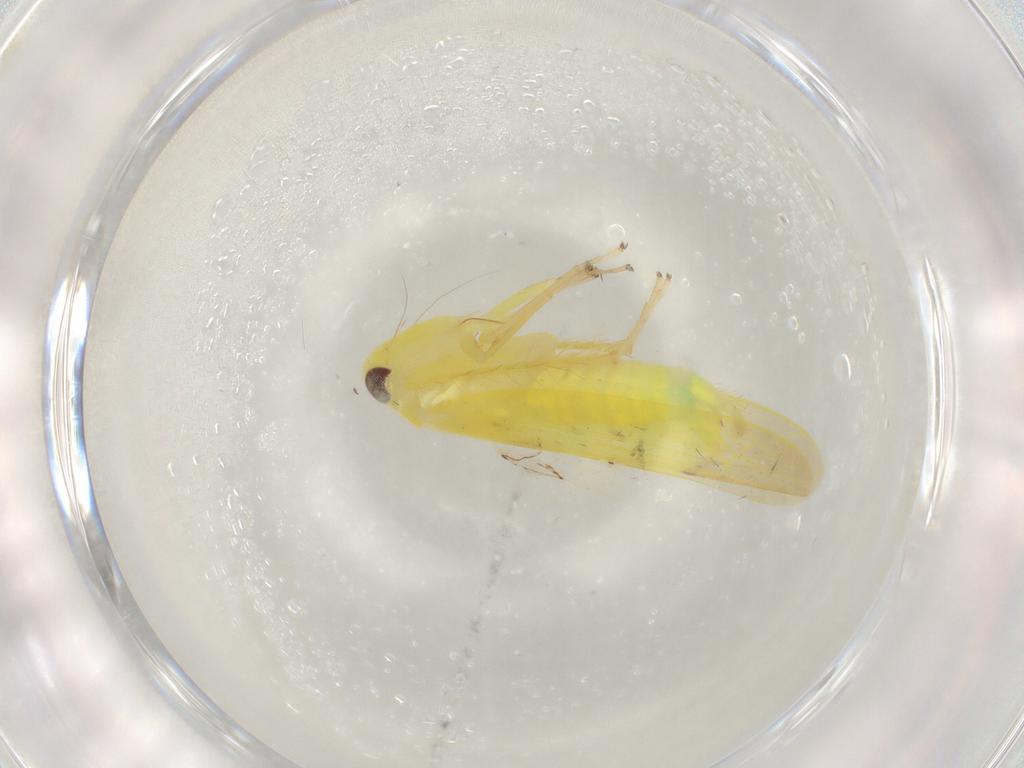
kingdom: Animalia
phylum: Arthropoda
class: Insecta
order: Hemiptera
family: Cicadellidae
